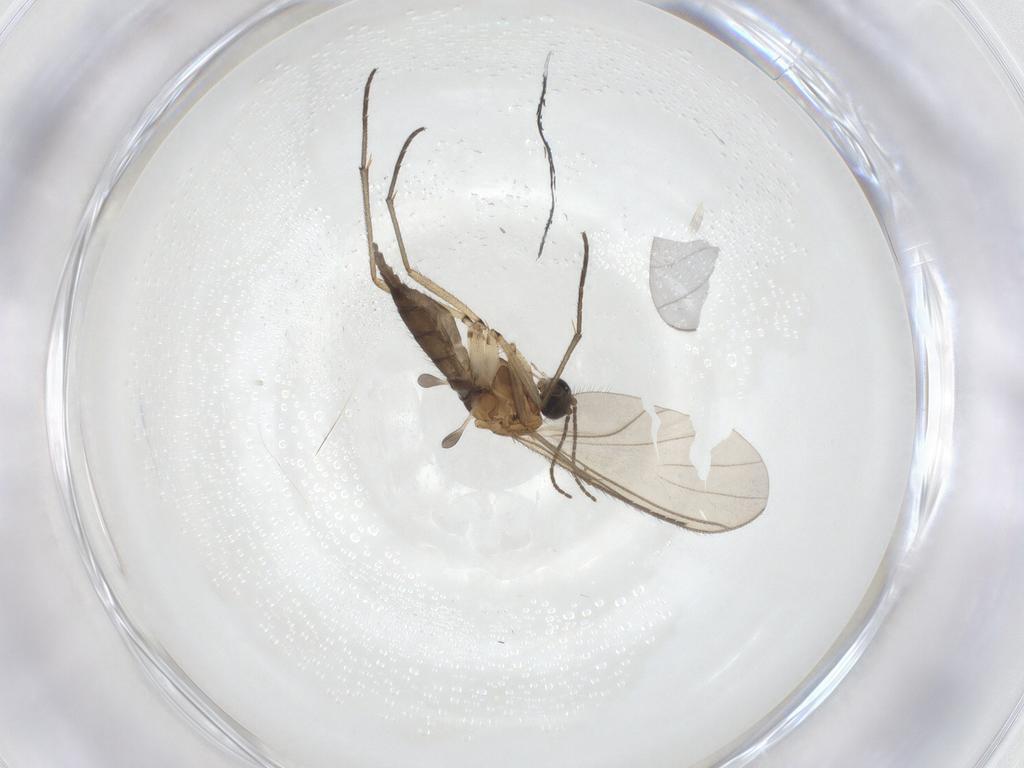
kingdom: Animalia
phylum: Arthropoda
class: Insecta
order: Diptera
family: Sciaridae
